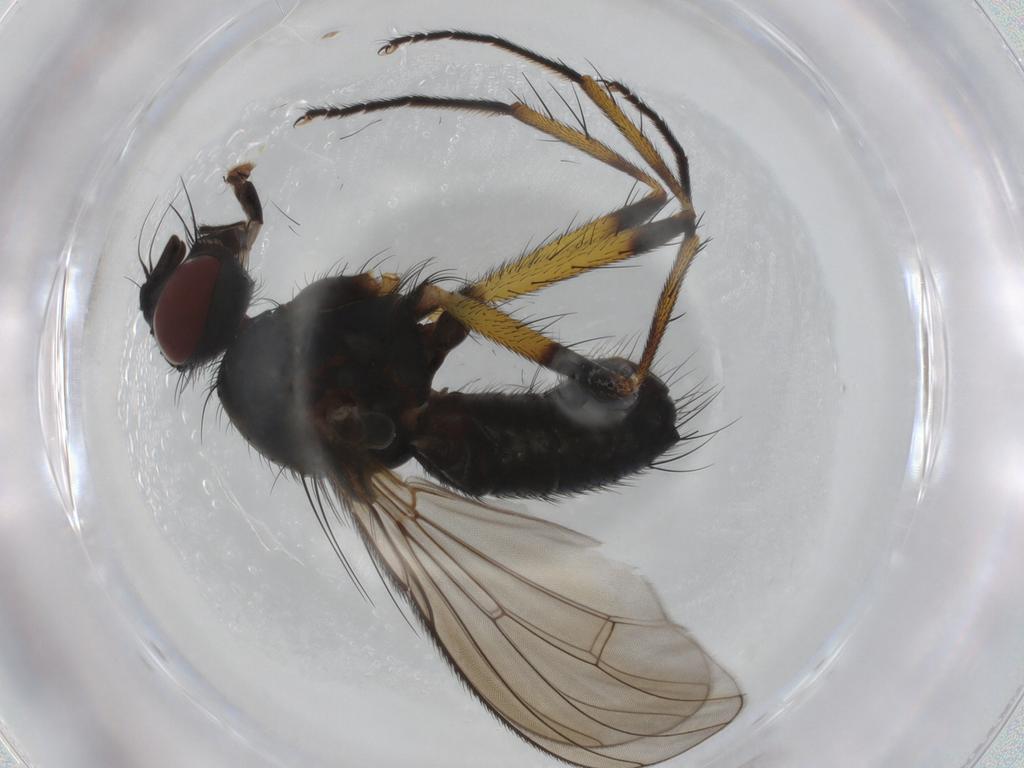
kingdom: Animalia
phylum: Arthropoda
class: Insecta
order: Diptera
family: Muscidae
